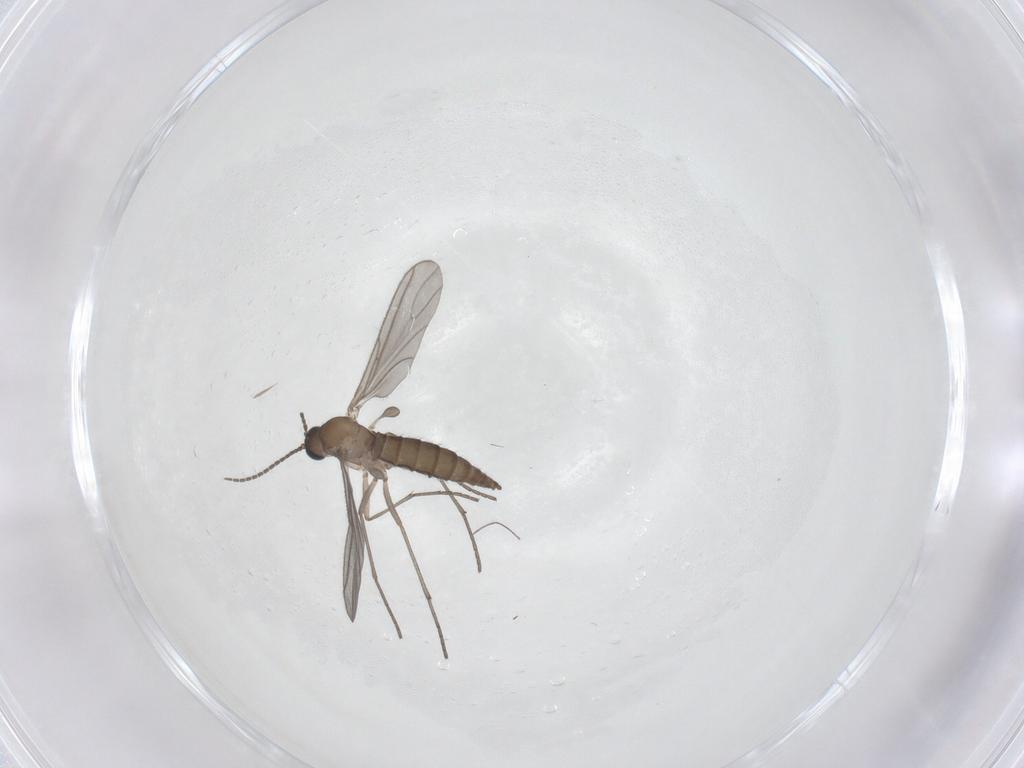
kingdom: Animalia
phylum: Arthropoda
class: Insecta
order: Diptera
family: Sciaridae
